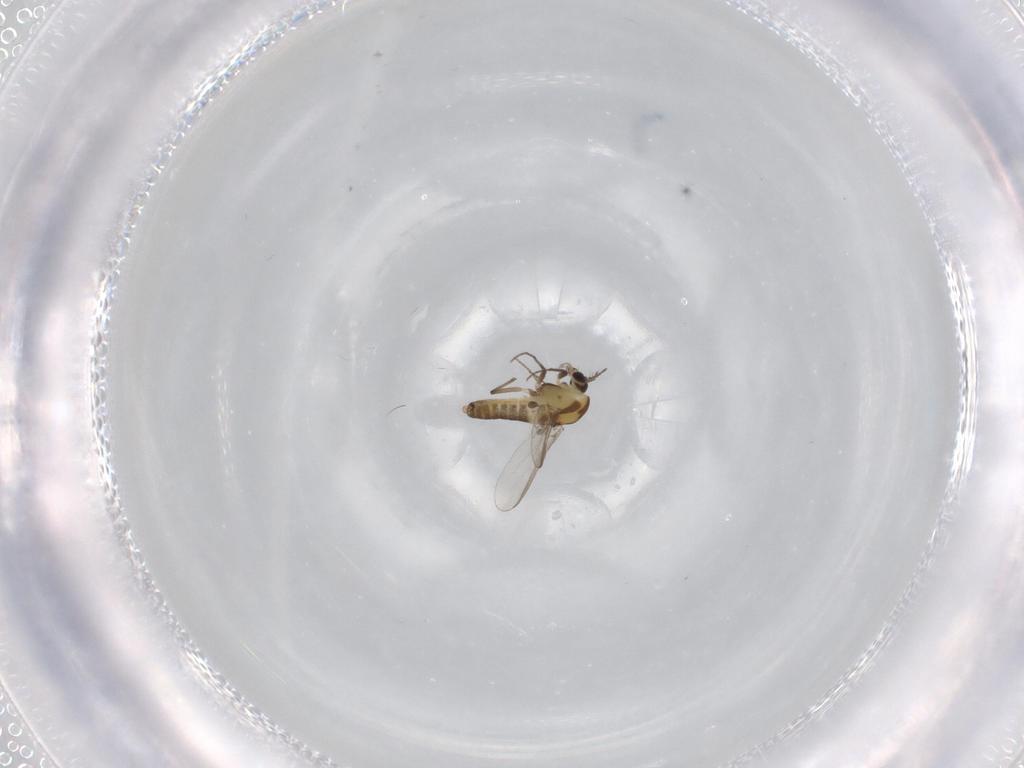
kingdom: Animalia
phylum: Arthropoda
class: Insecta
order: Diptera
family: Chironomidae
